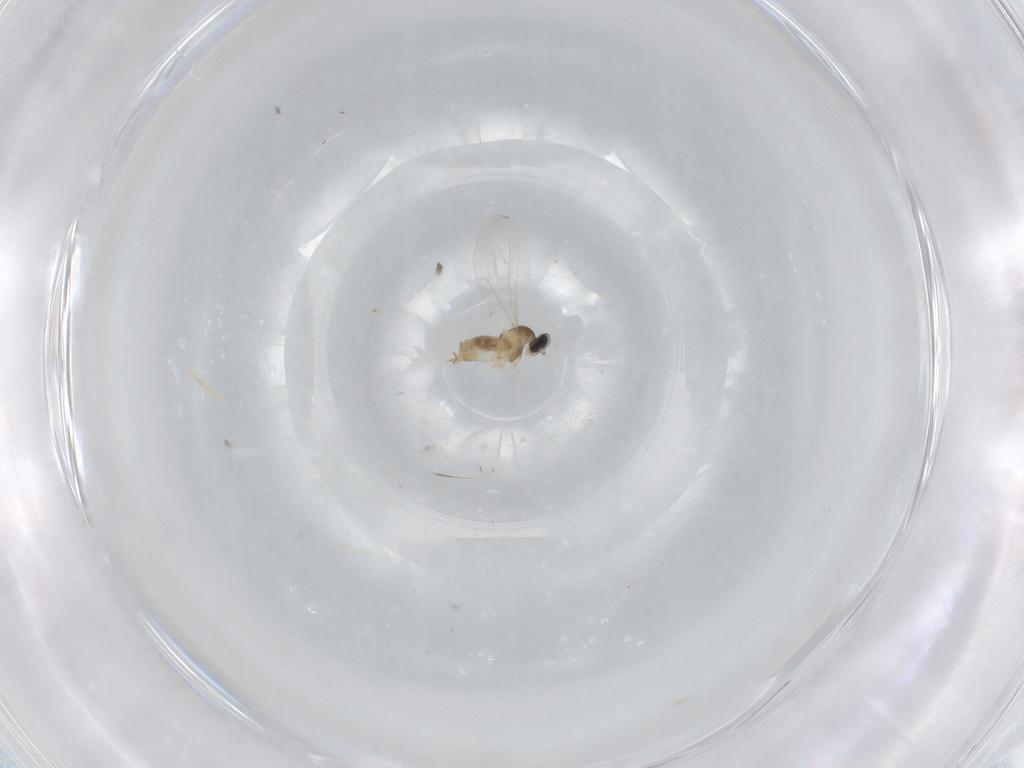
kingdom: Animalia
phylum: Arthropoda
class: Insecta
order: Diptera
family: Cecidomyiidae
